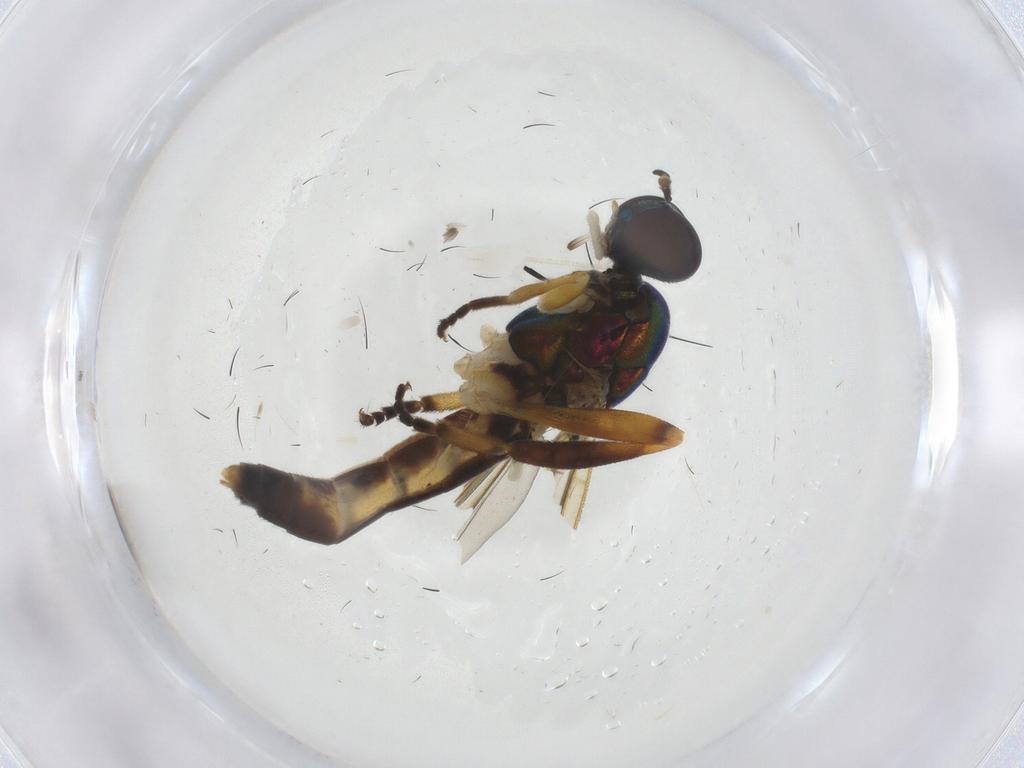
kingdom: Animalia
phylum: Arthropoda
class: Insecta
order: Diptera
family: Stratiomyidae
